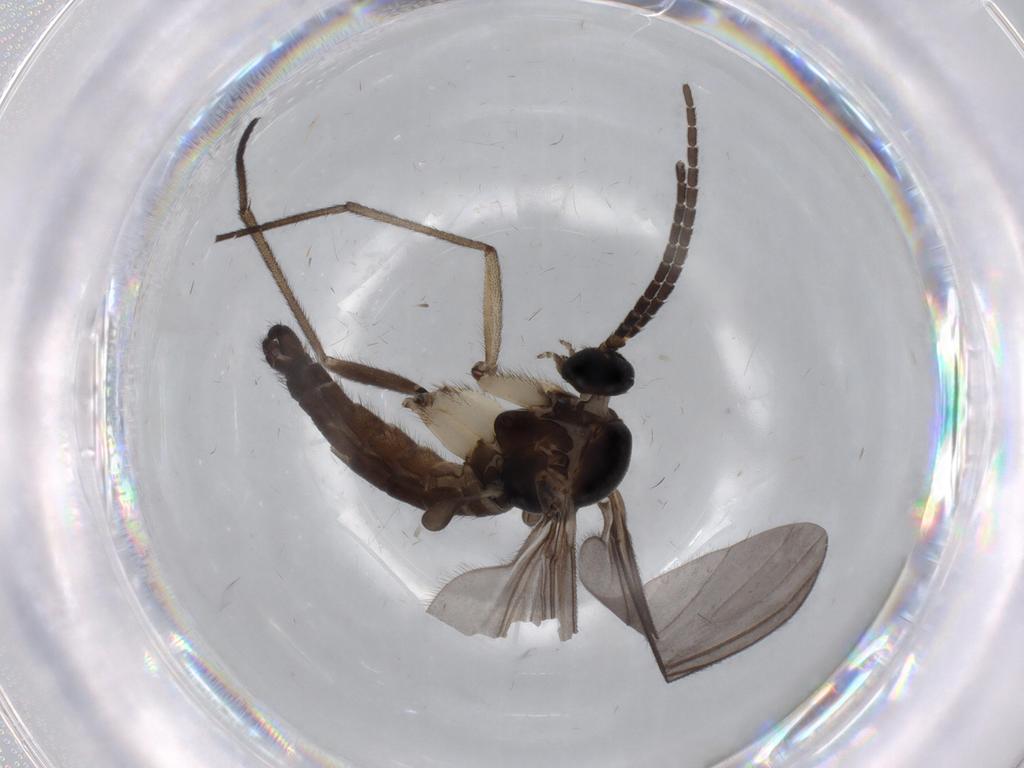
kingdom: Animalia
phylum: Arthropoda
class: Insecta
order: Diptera
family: Sciaridae
